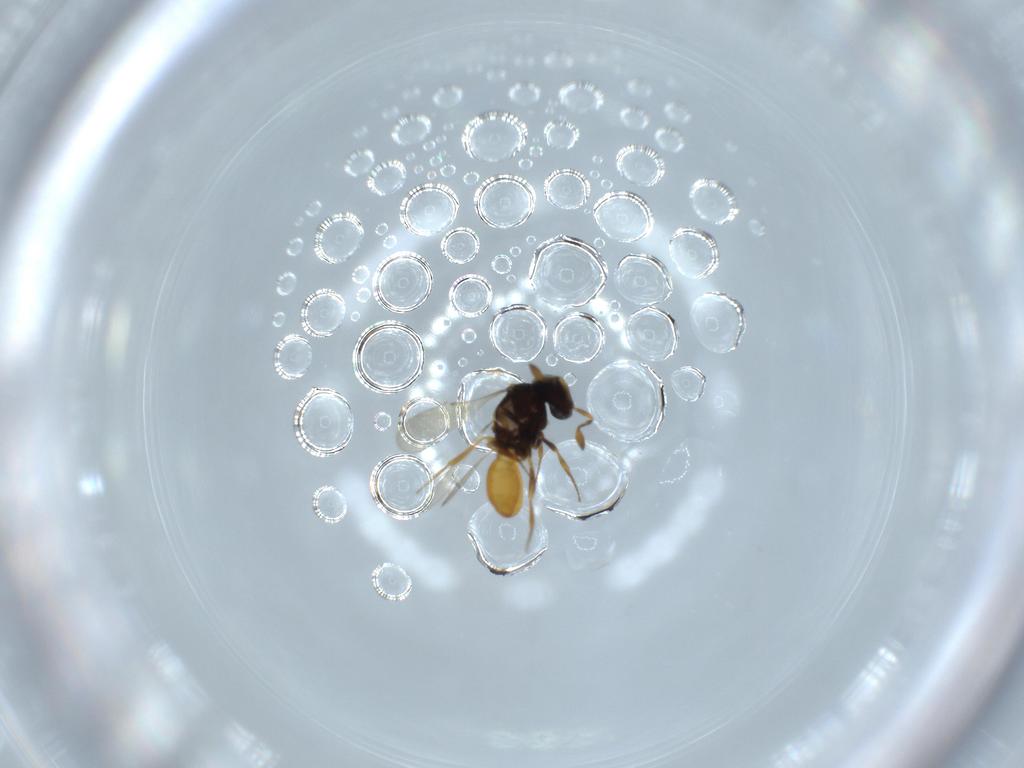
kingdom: Animalia
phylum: Arthropoda
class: Insecta
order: Hymenoptera
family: Scelionidae
